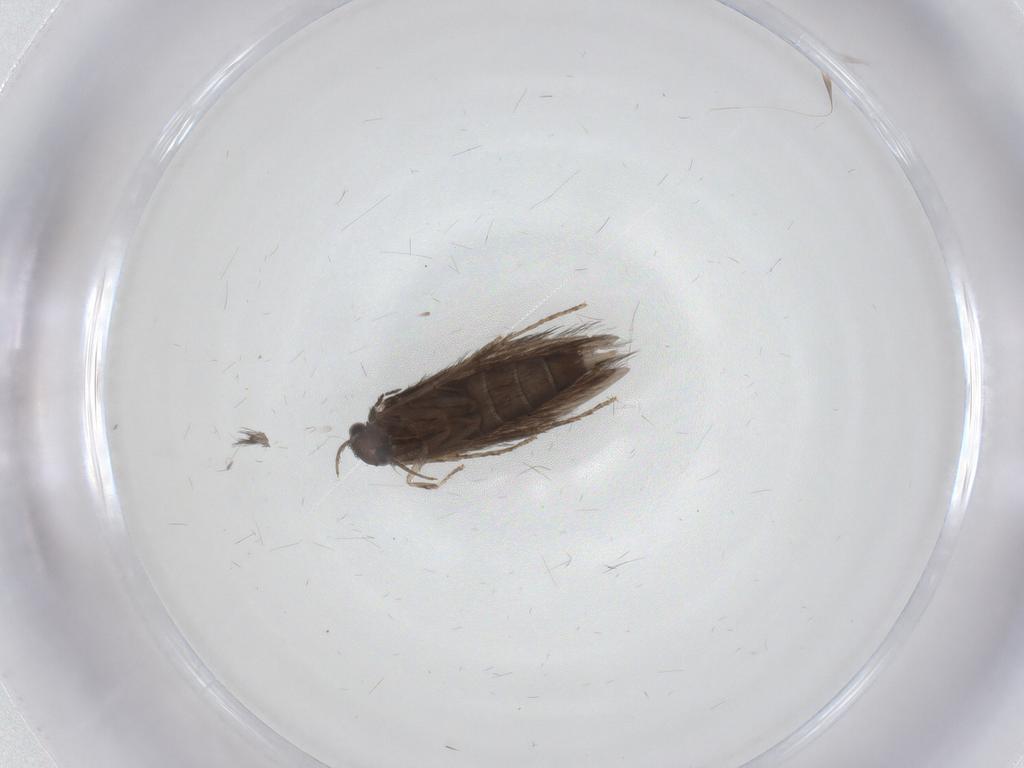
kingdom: Animalia
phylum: Arthropoda
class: Insecta
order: Trichoptera
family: Hydroptilidae
